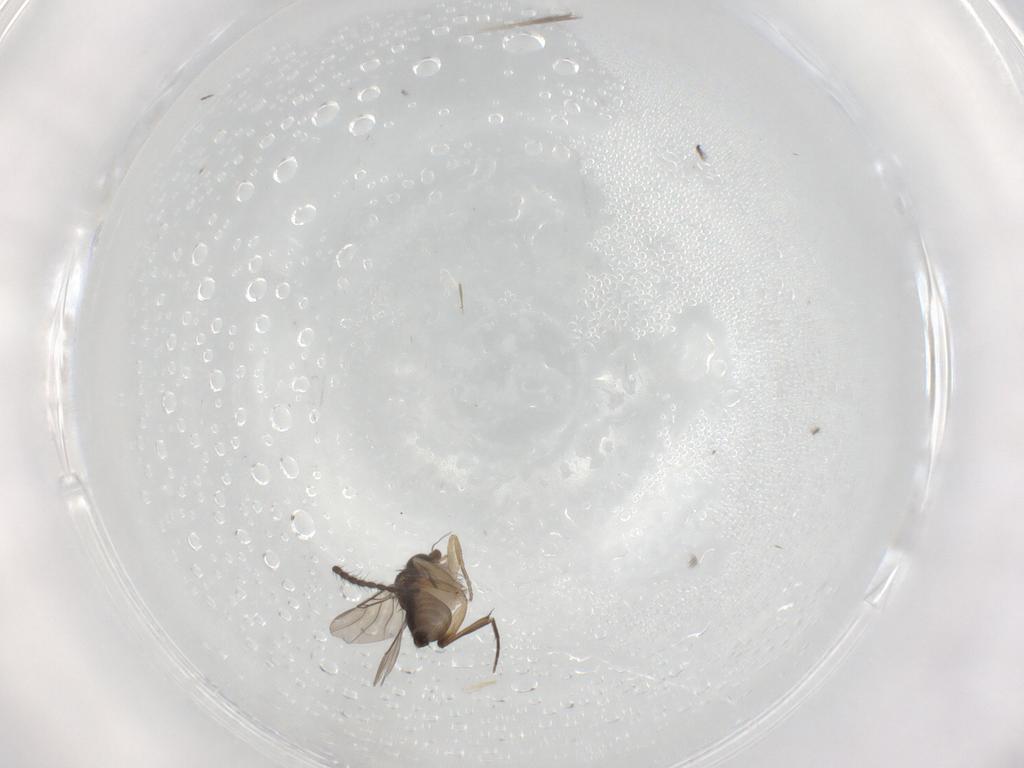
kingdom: Animalia
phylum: Arthropoda
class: Insecta
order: Diptera
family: Phoridae
